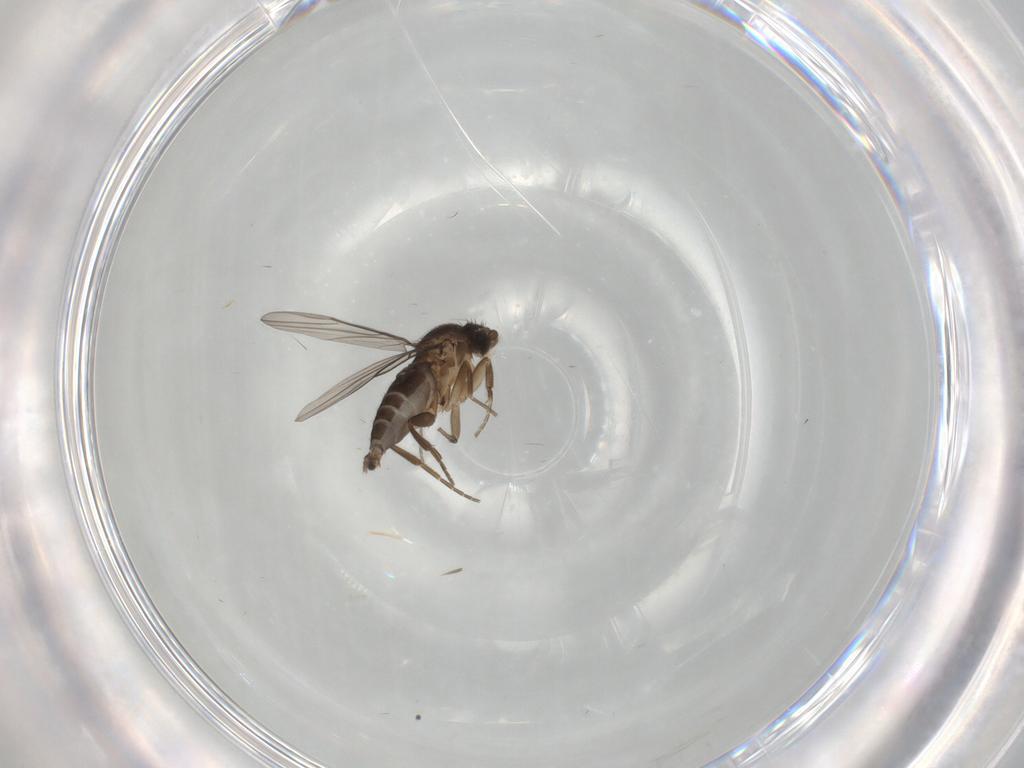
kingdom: Animalia
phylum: Arthropoda
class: Insecta
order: Diptera
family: Phoridae
